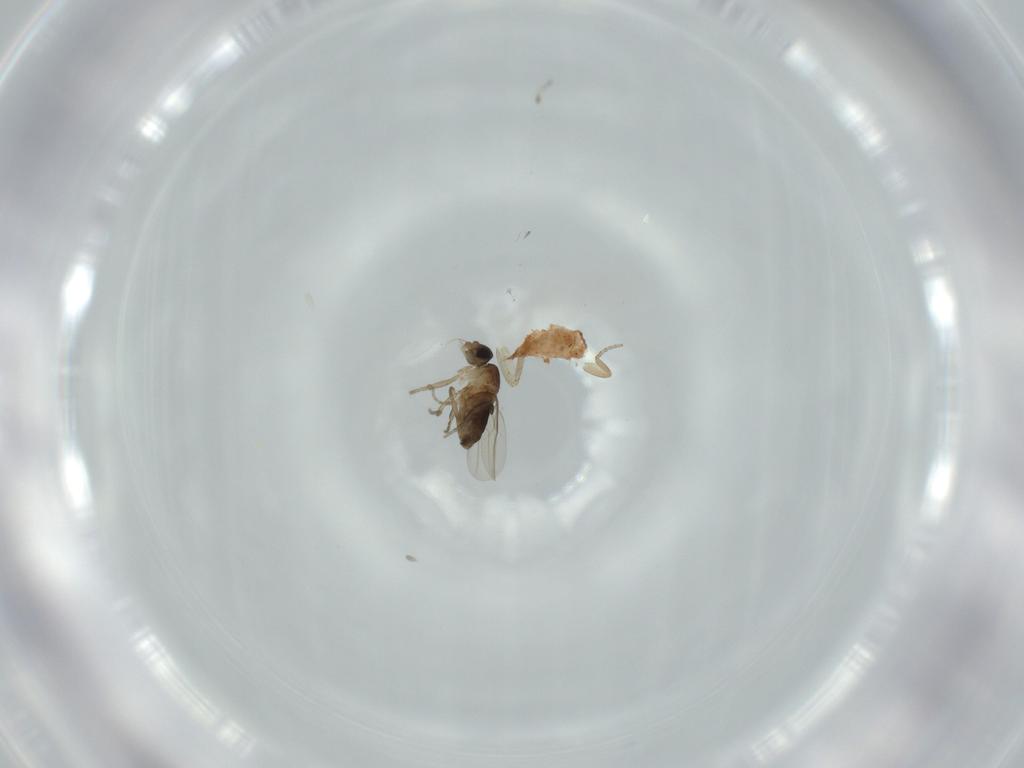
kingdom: Animalia
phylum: Arthropoda
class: Insecta
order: Diptera
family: Phoridae
